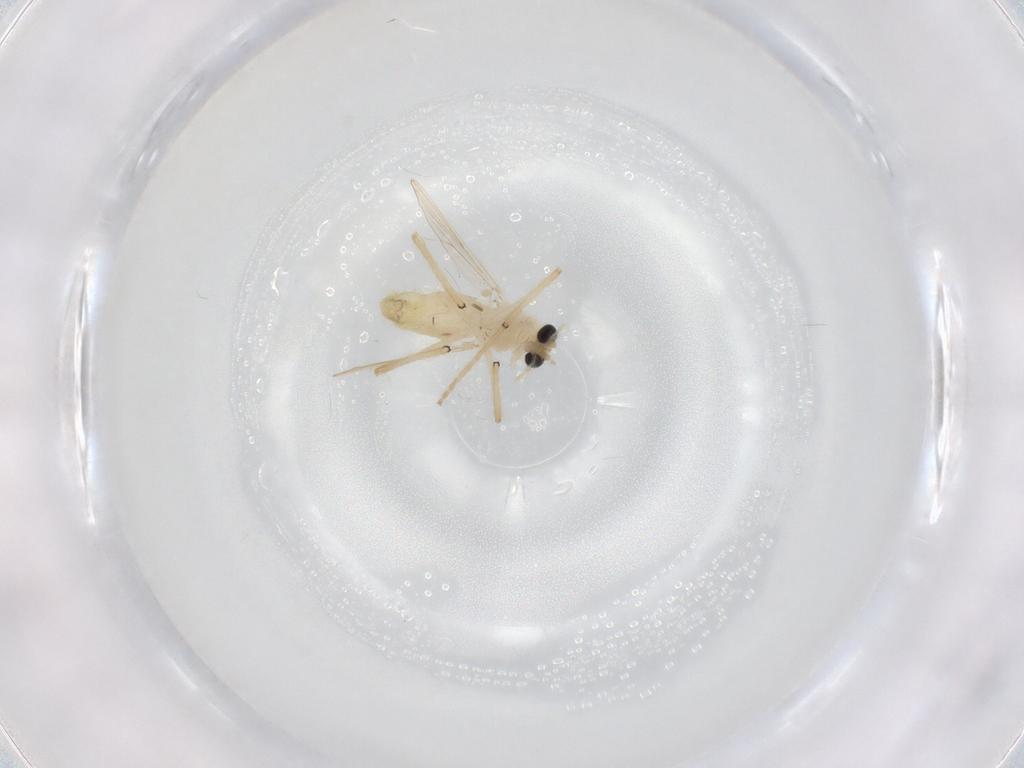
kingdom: Animalia
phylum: Arthropoda
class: Insecta
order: Diptera
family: Chironomidae
